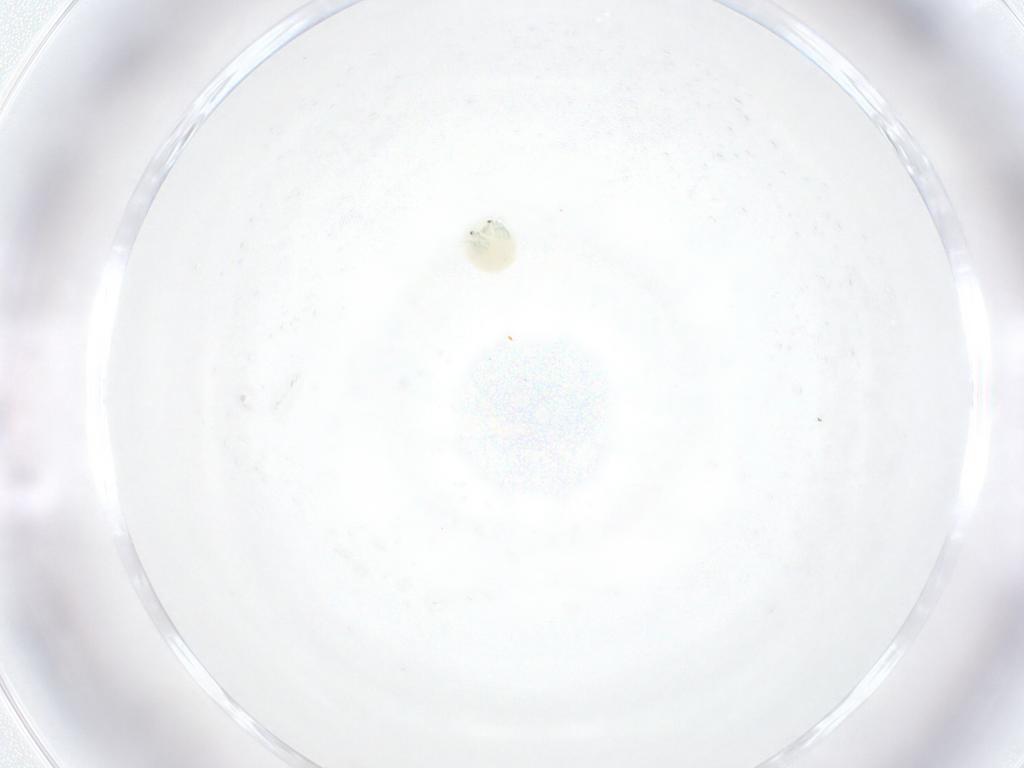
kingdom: Animalia
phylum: Arthropoda
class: Arachnida
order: Trombidiformes
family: Arrenuridae
